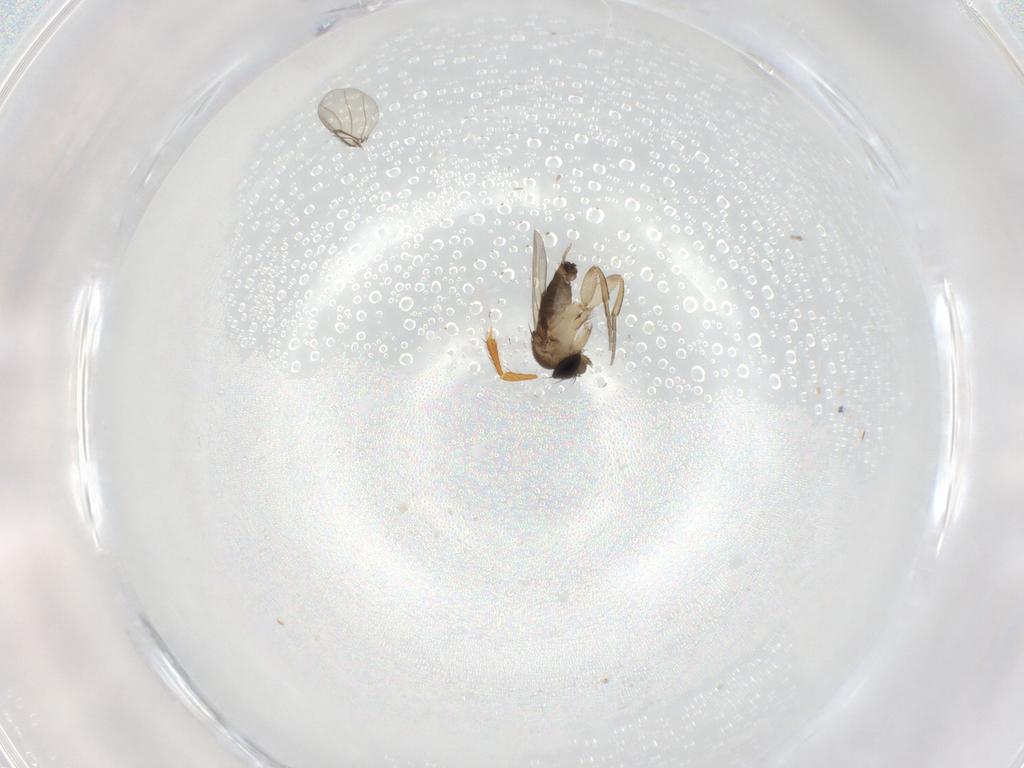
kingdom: Animalia
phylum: Arthropoda
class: Insecta
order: Diptera
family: Phoridae
